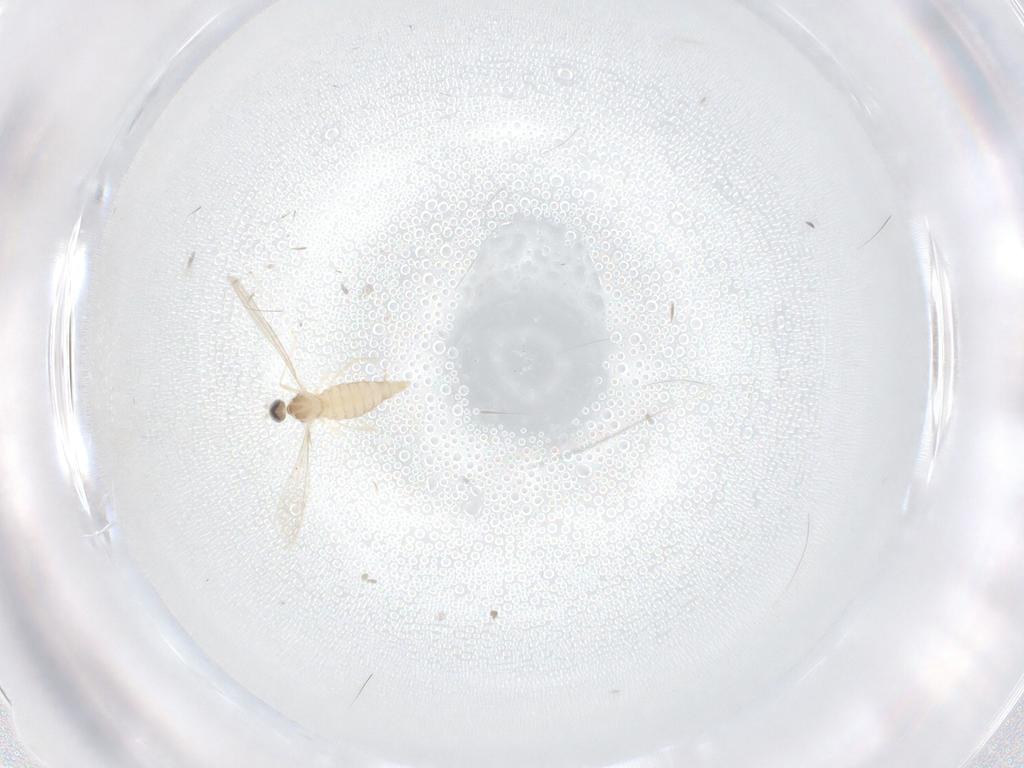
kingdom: Animalia
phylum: Arthropoda
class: Insecta
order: Diptera
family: Cecidomyiidae
